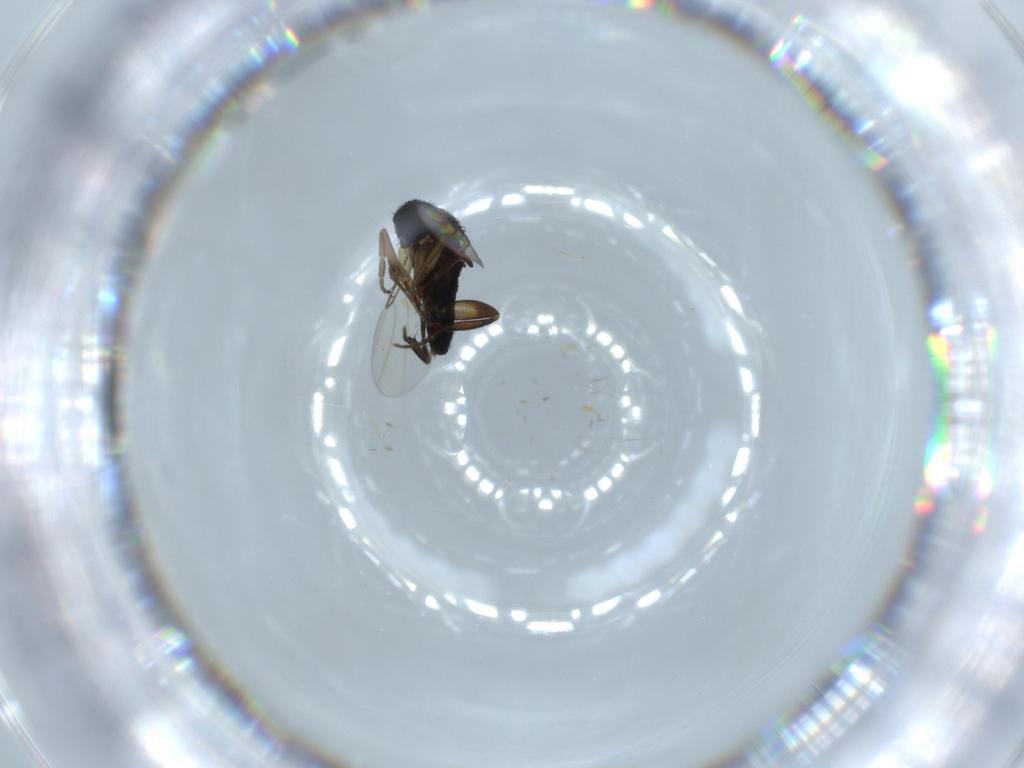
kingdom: Animalia
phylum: Arthropoda
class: Insecta
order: Diptera
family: Phoridae
